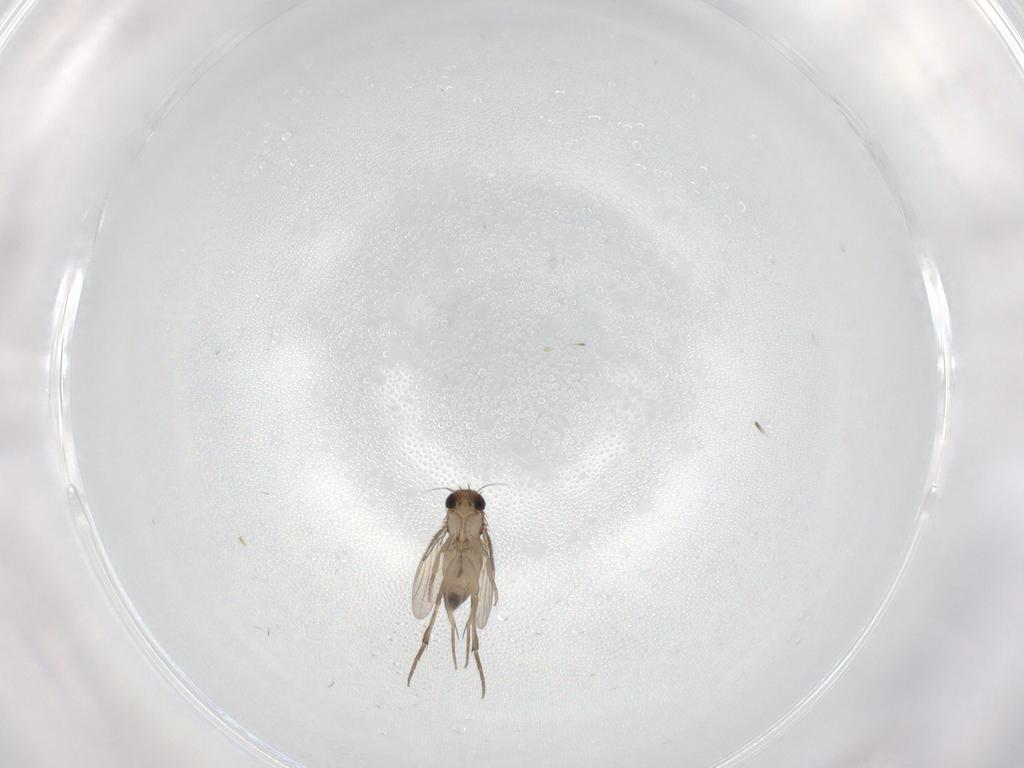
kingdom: Animalia
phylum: Arthropoda
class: Insecta
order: Diptera
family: Phoridae
